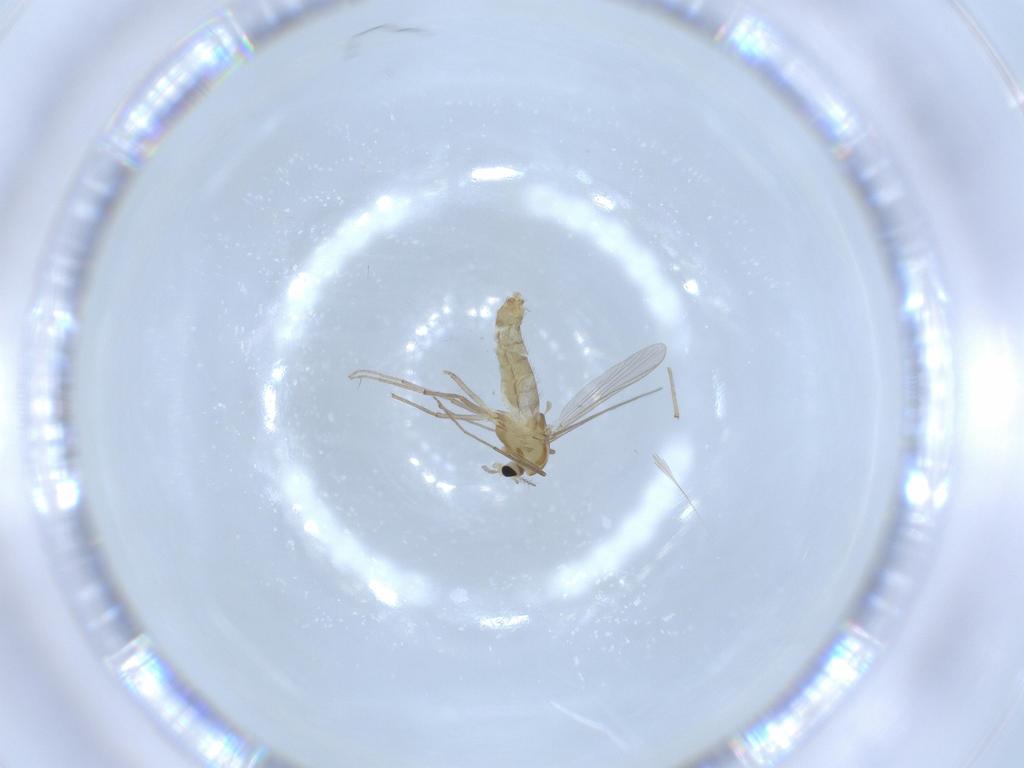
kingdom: Animalia
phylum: Arthropoda
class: Insecta
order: Diptera
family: Chironomidae
